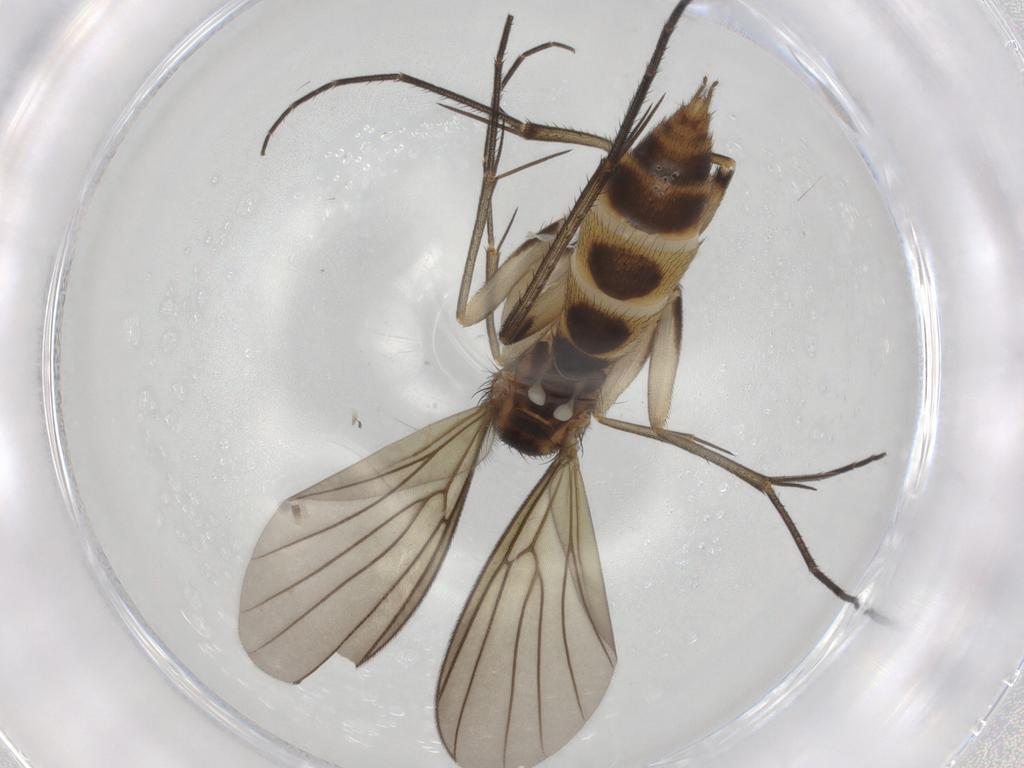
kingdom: Animalia
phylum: Arthropoda
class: Insecta
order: Diptera
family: Mycetophilidae
